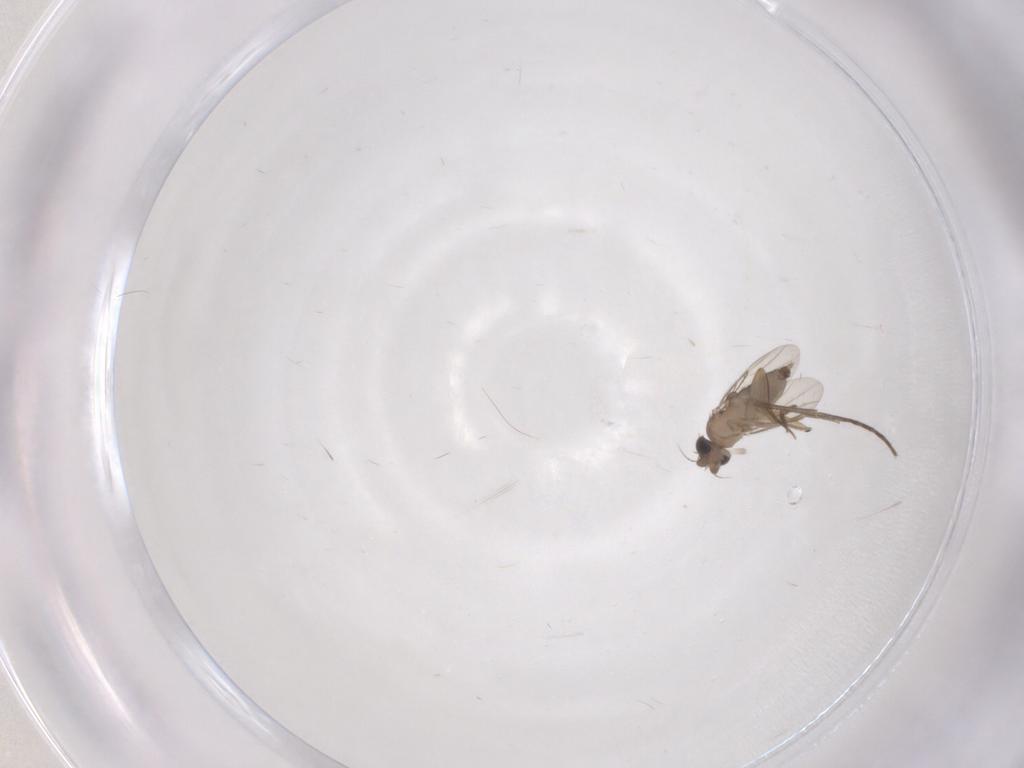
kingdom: Animalia
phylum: Arthropoda
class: Insecta
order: Diptera
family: Phoridae
